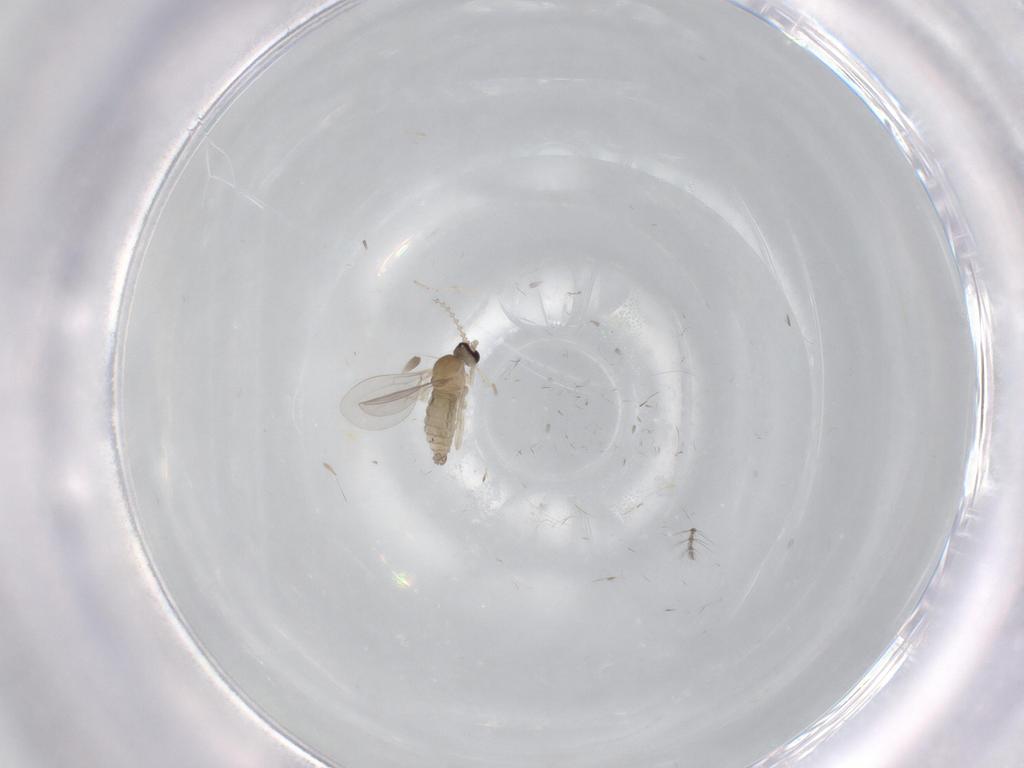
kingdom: Animalia
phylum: Arthropoda
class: Insecta
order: Diptera
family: Cecidomyiidae
